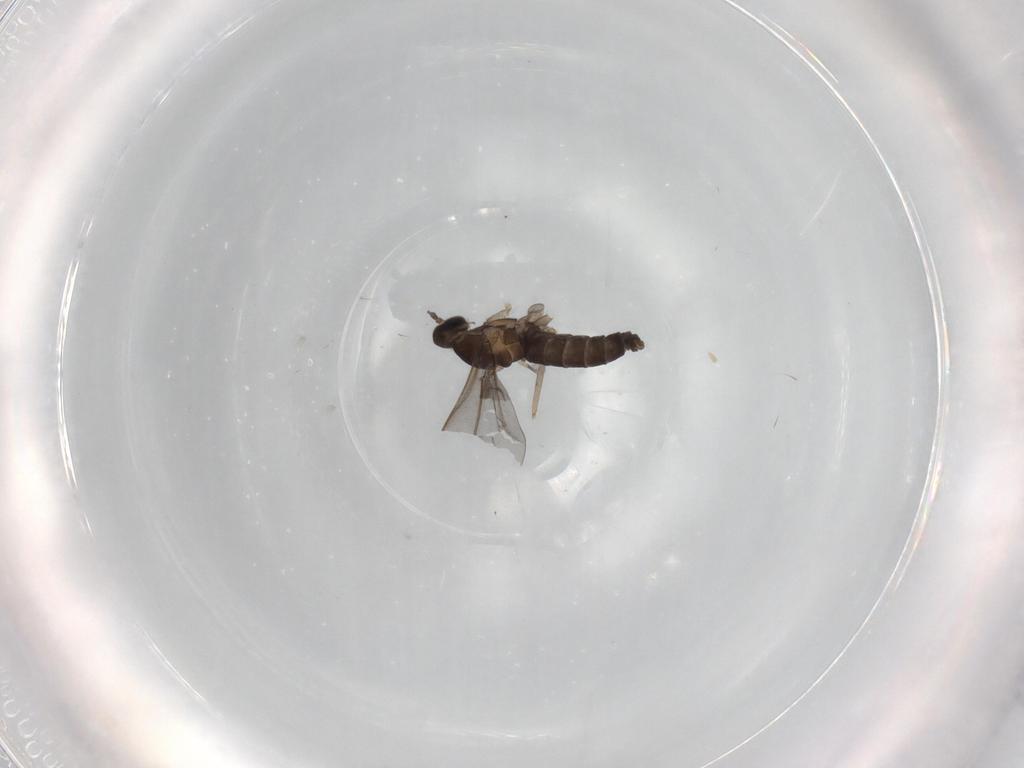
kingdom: Animalia
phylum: Arthropoda
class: Insecta
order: Diptera
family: Cecidomyiidae
